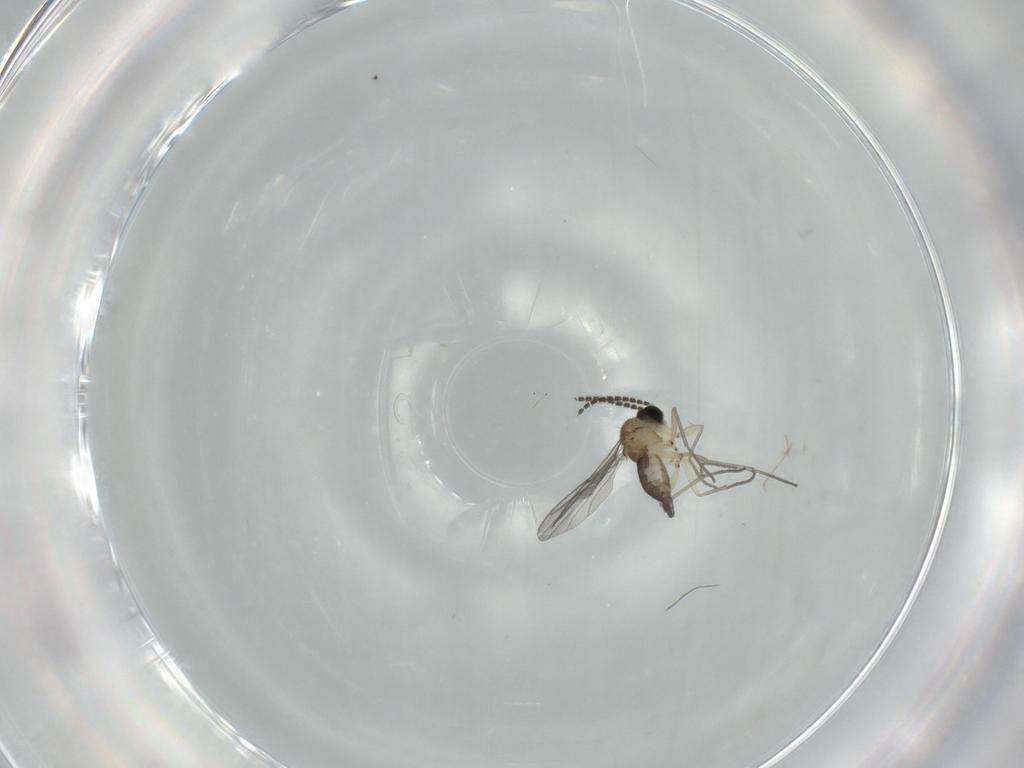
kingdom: Animalia
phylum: Arthropoda
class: Insecta
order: Diptera
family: Sciaridae
